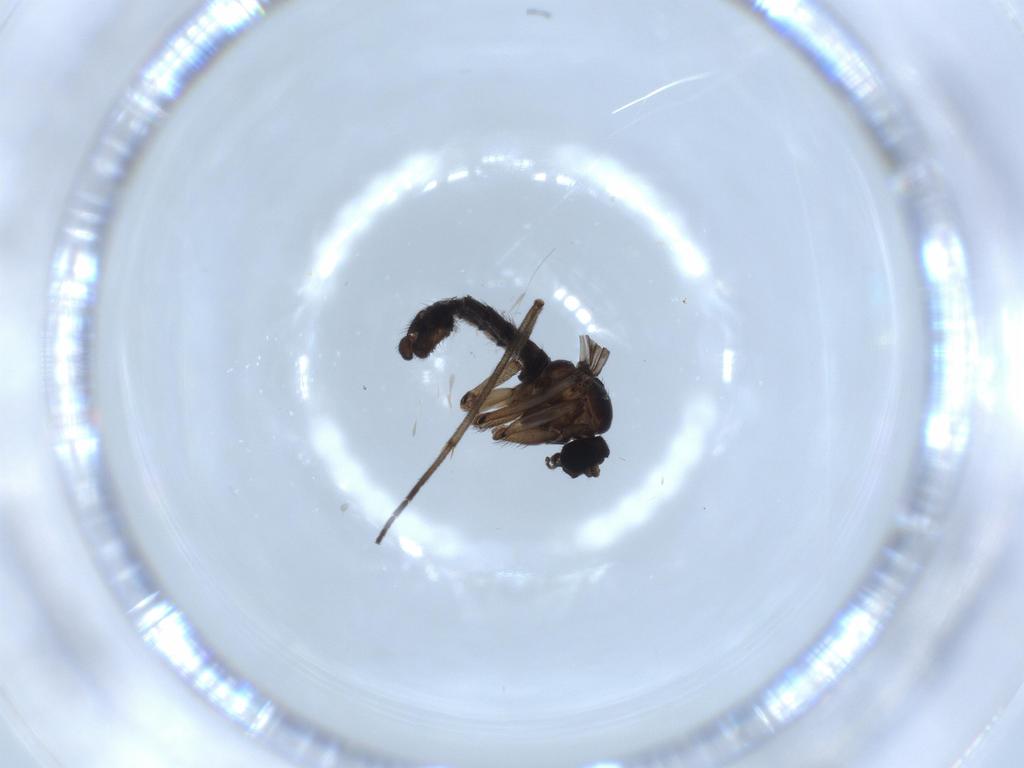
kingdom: Animalia
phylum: Arthropoda
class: Insecta
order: Diptera
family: Sciaridae
